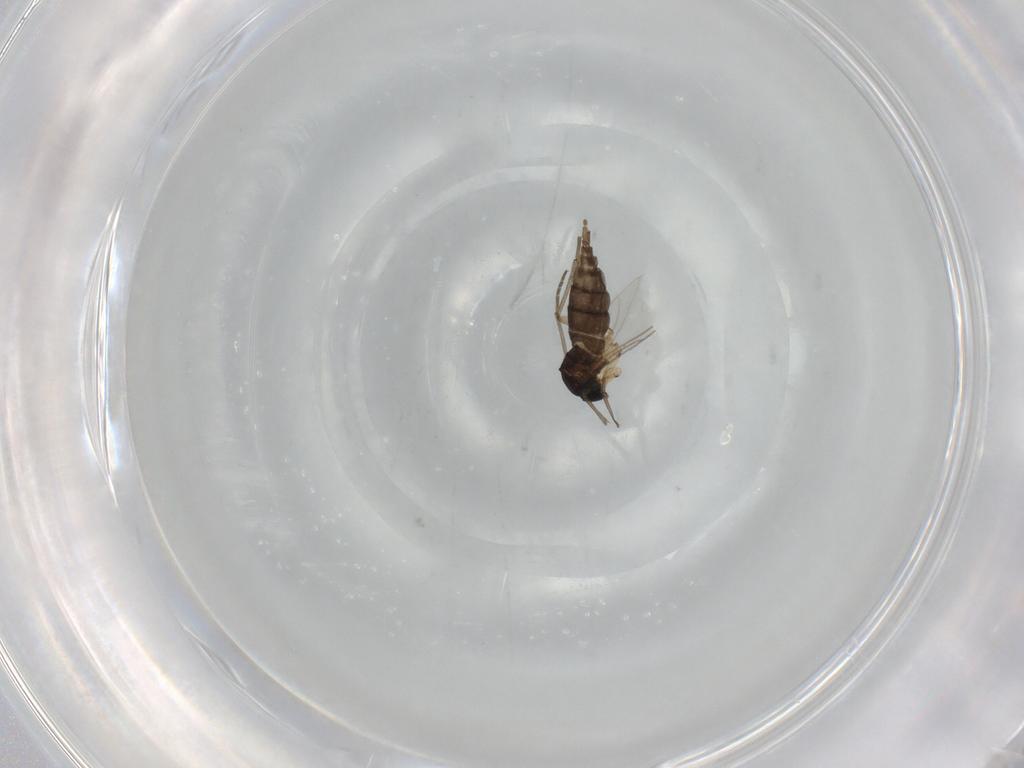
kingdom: Animalia
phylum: Arthropoda
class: Insecta
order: Diptera
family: Sciaridae
